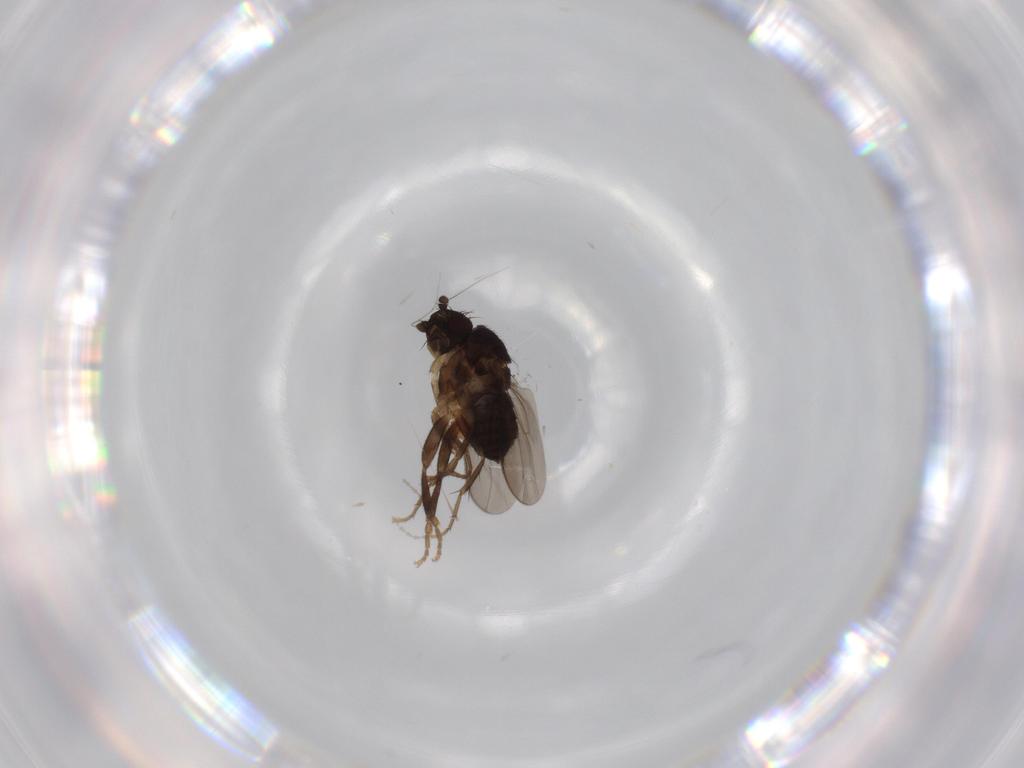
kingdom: Animalia
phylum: Arthropoda
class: Insecta
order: Diptera
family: Sphaeroceridae
